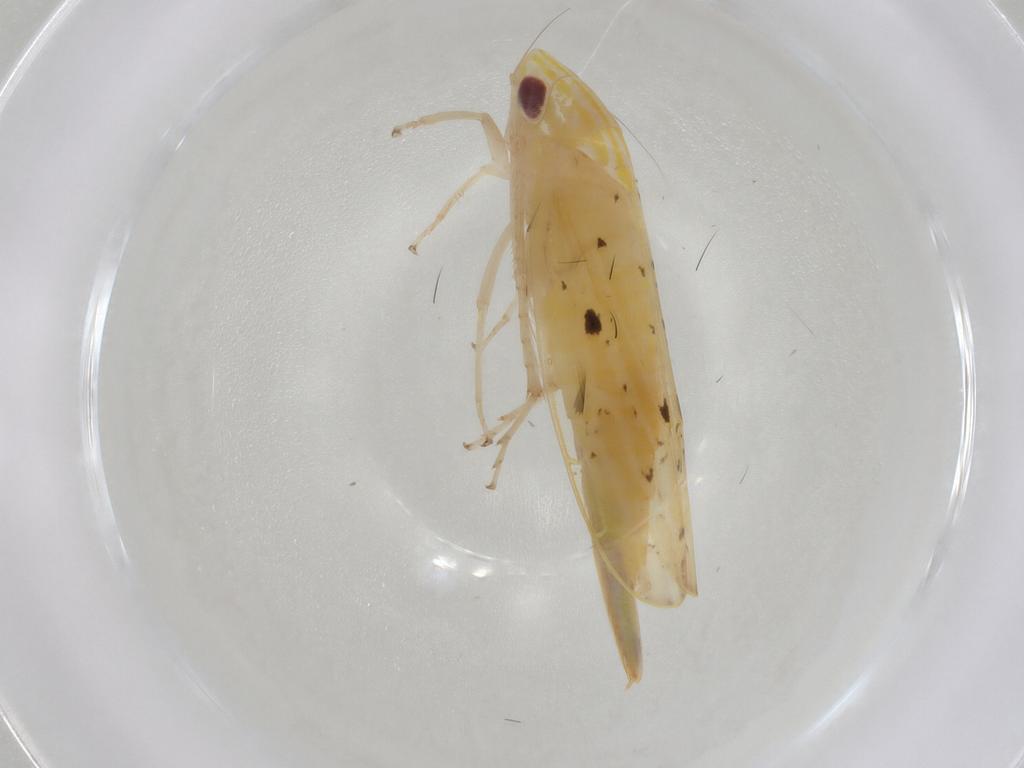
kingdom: Animalia
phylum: Arthropoda
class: Insecta
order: Hemiptera
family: Cicadellidae
